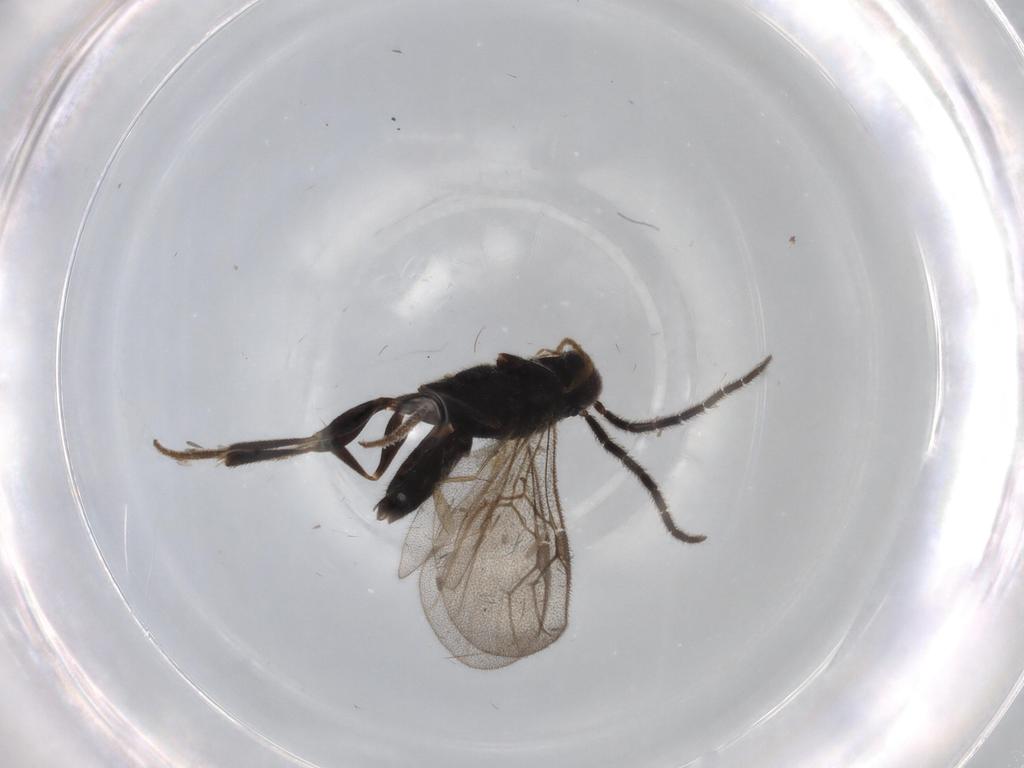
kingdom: Animalia
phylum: Arthropoda
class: Insecta
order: Hymenoptera
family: Dryinidae
